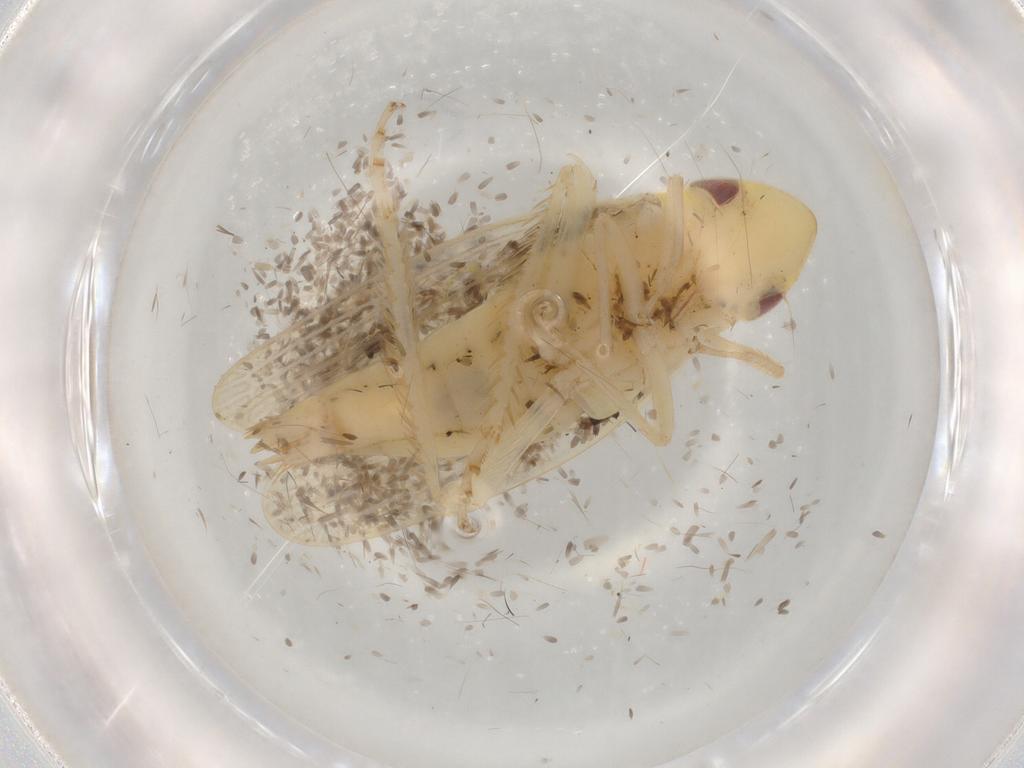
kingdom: Animalia
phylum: Arthropoda
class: Insecta
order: Hemiptera
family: Cicadellidae
